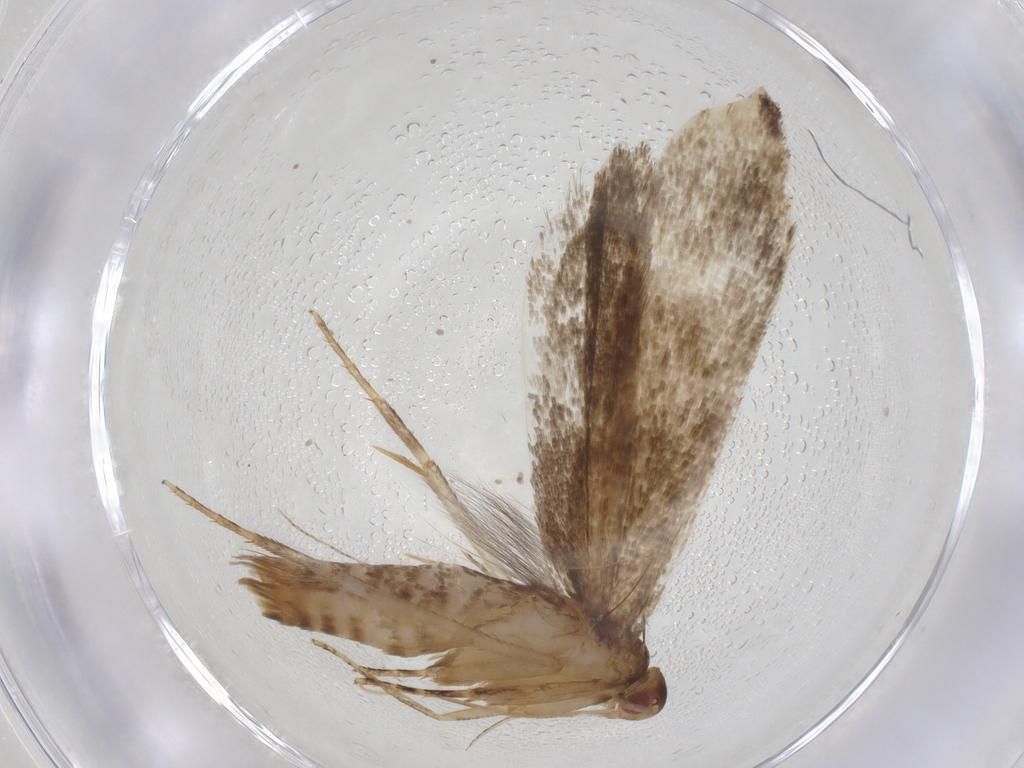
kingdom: Animalia
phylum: Arthropoda
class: Insecta
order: Lepidoptera
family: Gelechiidae
